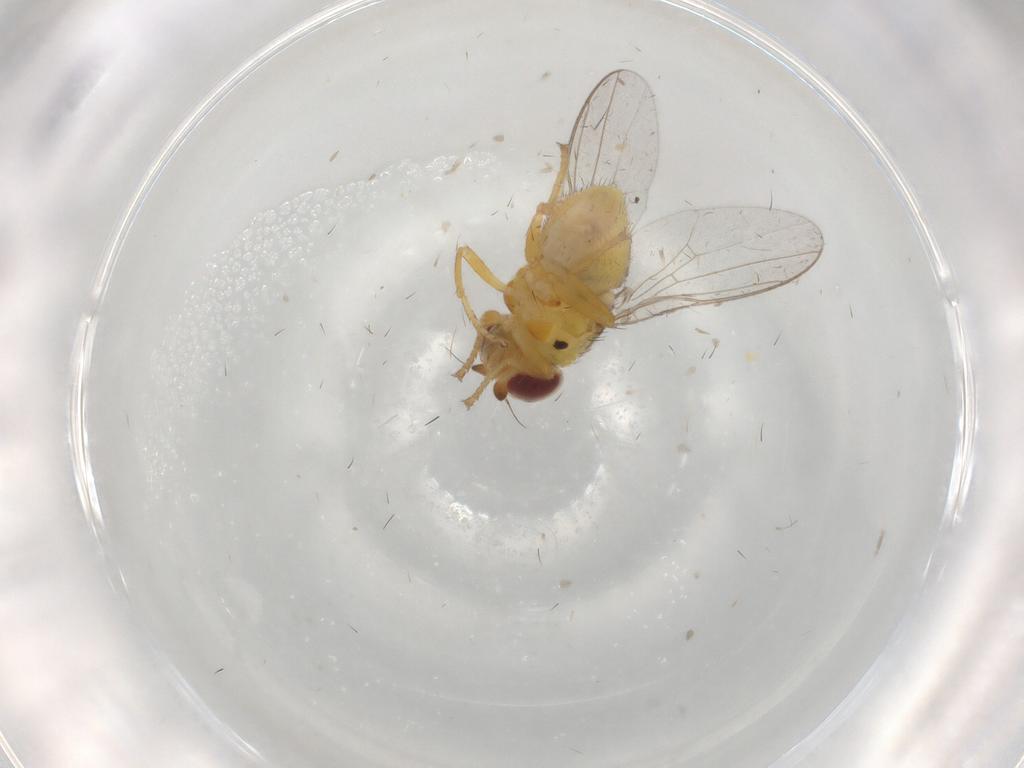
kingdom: Animalia
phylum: Arthropoda
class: Insecta
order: Diptera
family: Chloropidae
